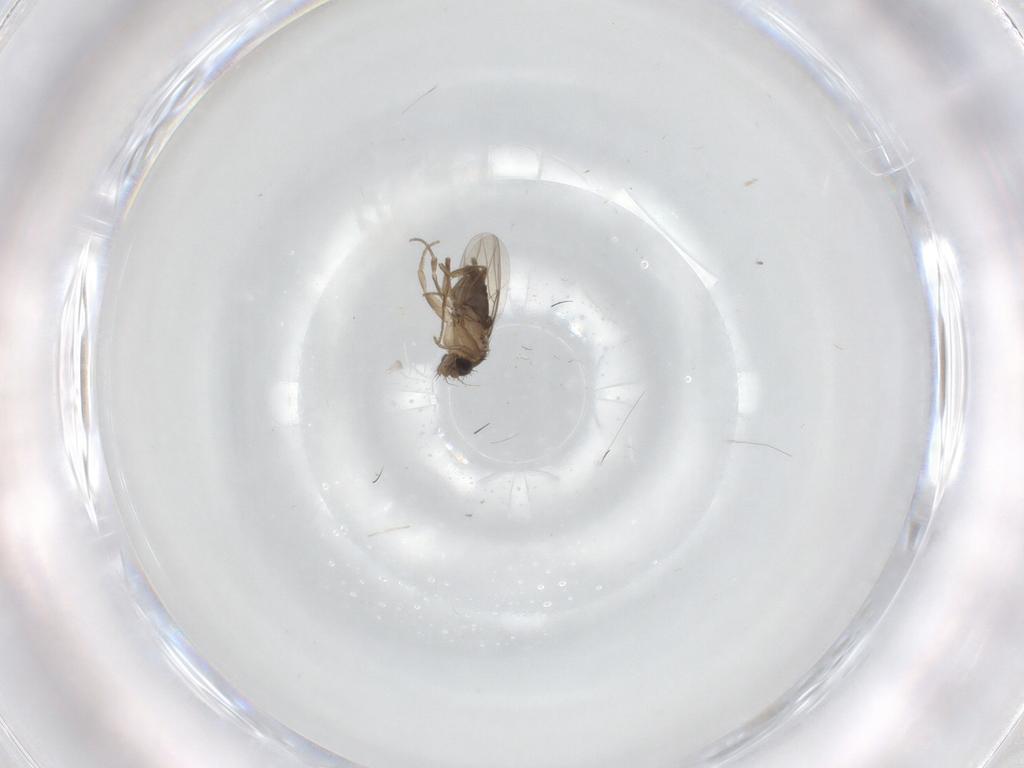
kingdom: Animalia
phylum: Arthropoda
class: Insecta
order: Diptera
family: Phoridae
